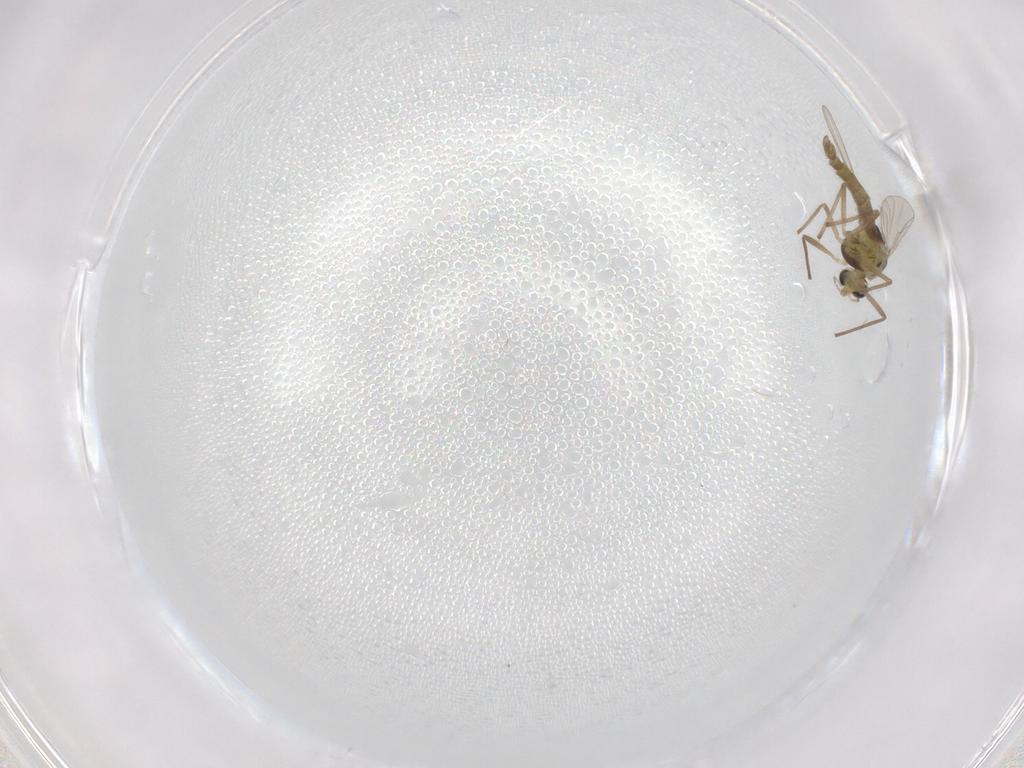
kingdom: Animalia
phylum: Arthropoda
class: Insecta
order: Diptera
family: Chironomidae
